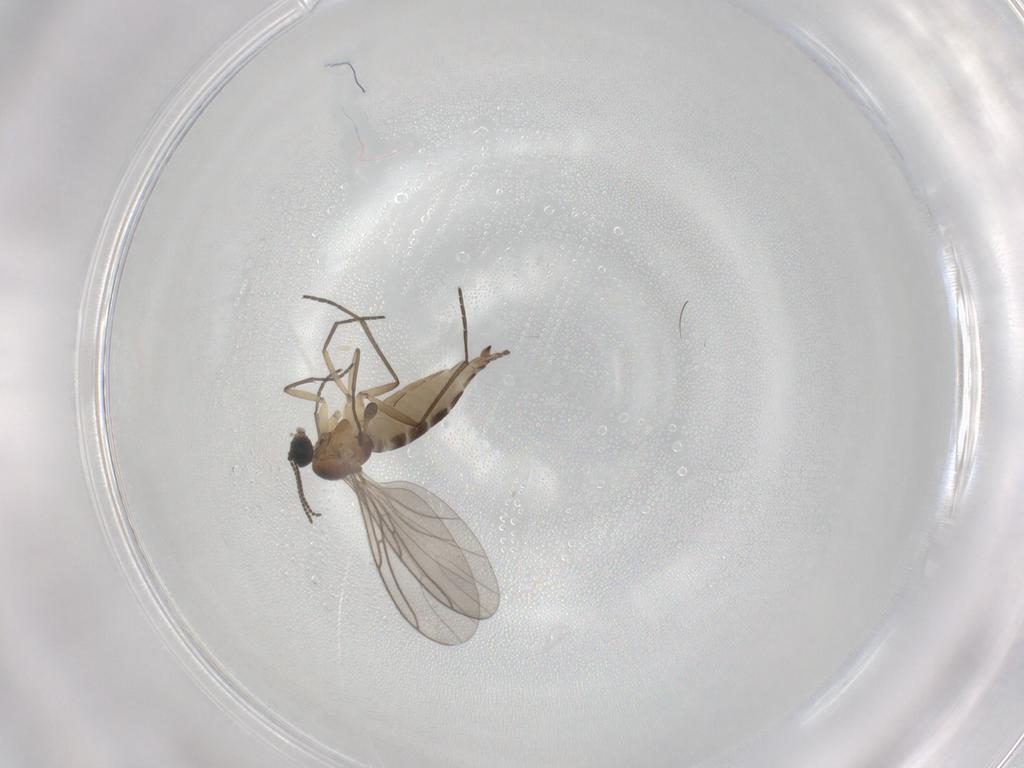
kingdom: Animalia
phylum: Arthropoda
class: Insecta
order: Diptera
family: Sciaridae
